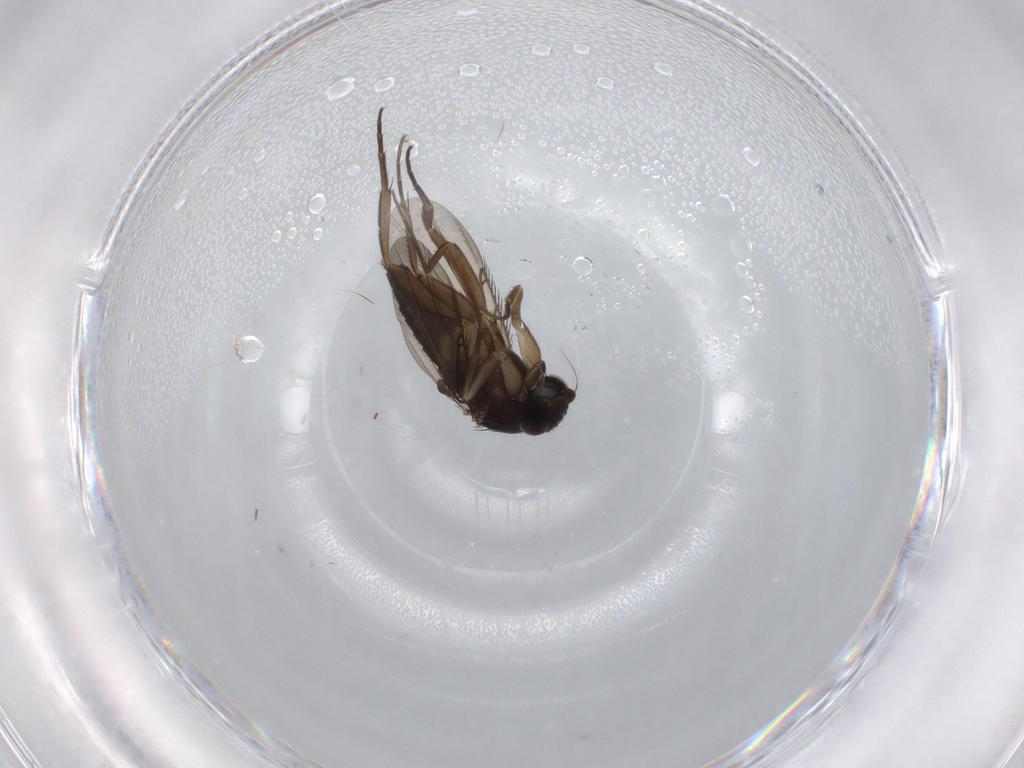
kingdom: Animalia
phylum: Arthropoda
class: Insecta
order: Diptera
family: Phoridae
